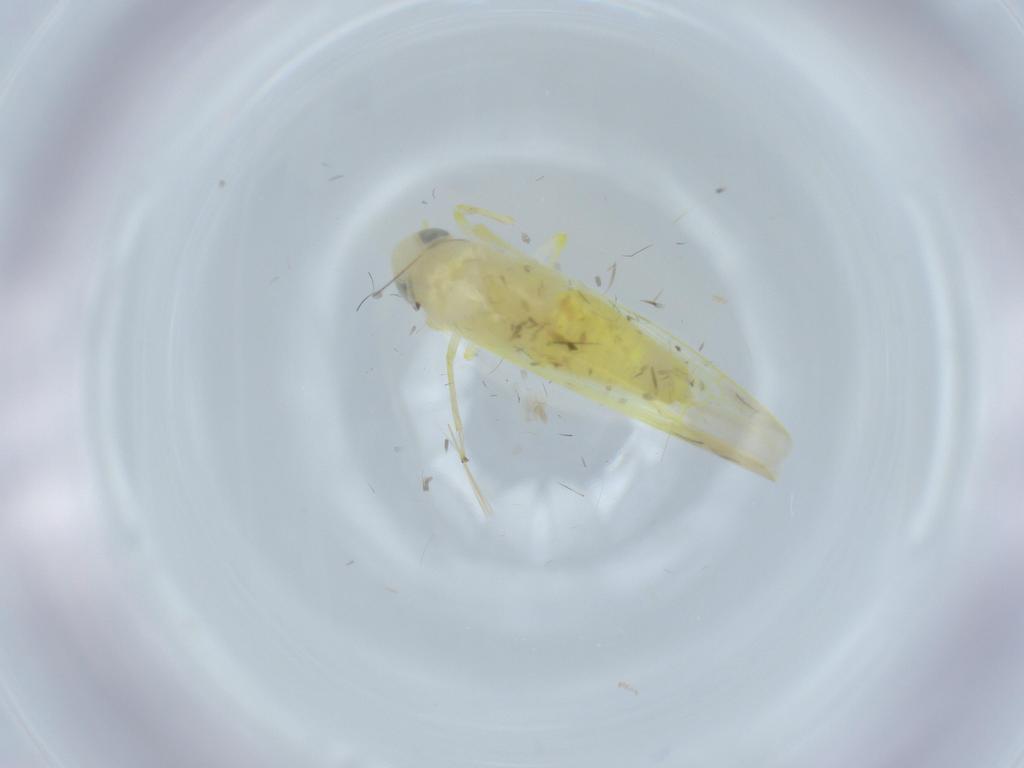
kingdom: Animalia
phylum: Arthropoda
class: Insecta
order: Hemiptera
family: Cicadellidae
